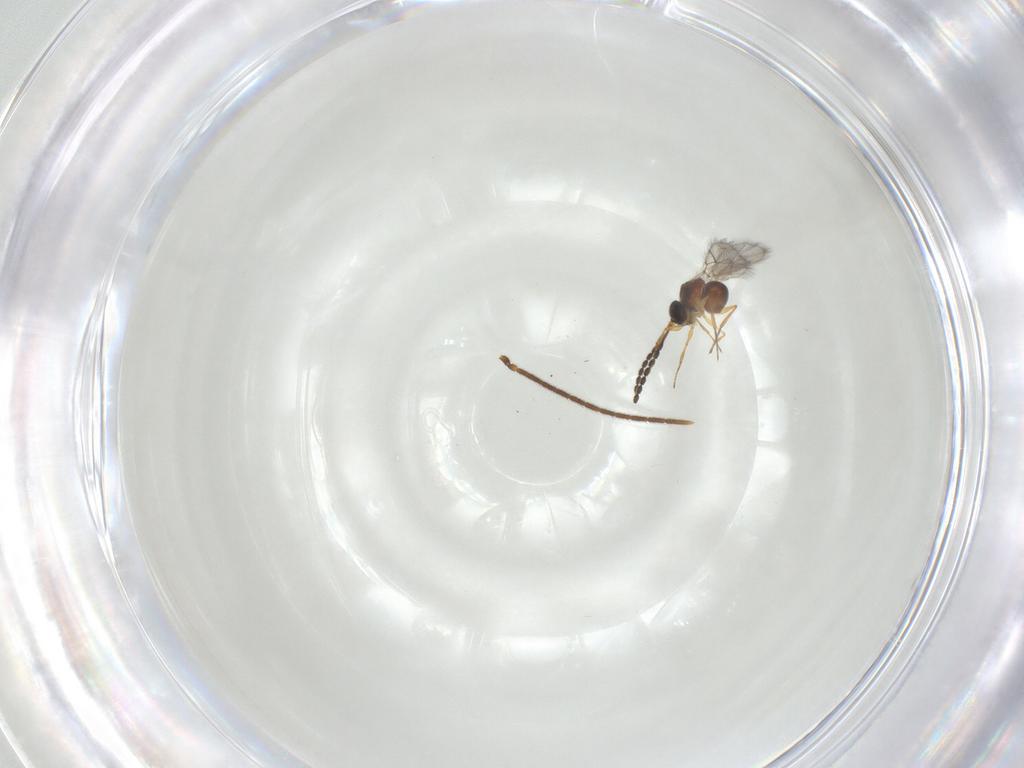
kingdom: Animalia
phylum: Arthropoda
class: Insecta
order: Hymenoptera
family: Figitidae
